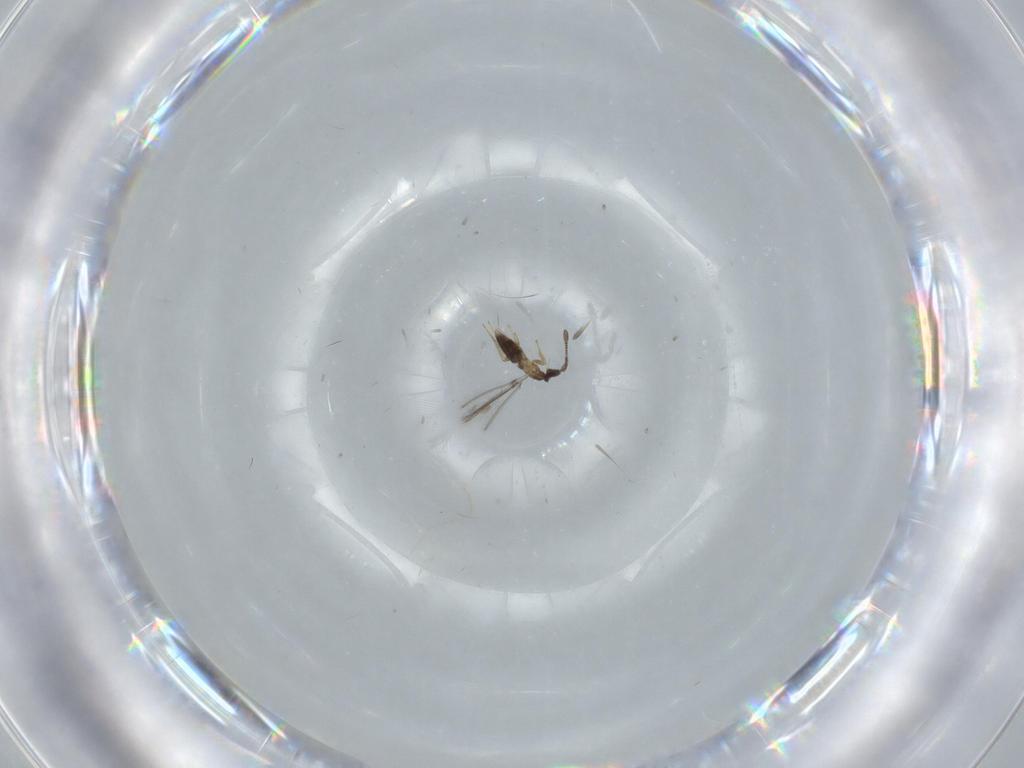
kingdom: Animalia
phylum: Arthropoda
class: Insecta
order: Hymenoptera
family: Mymaridae
